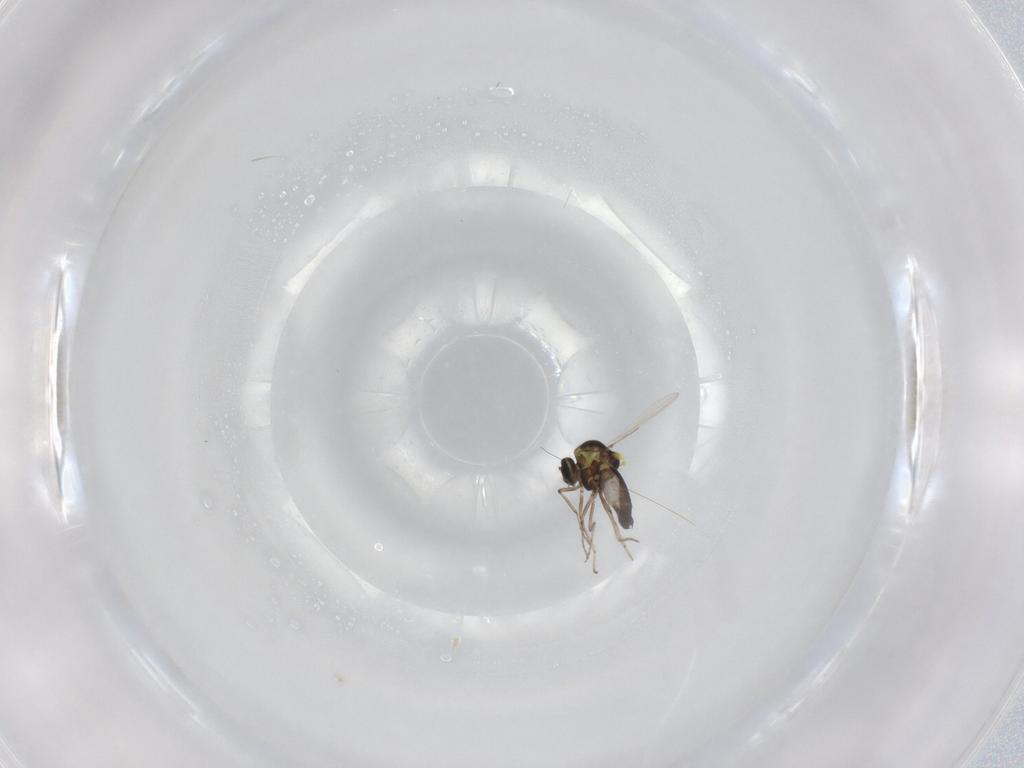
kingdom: Animalia
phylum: Arthropoda
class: Insecta
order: Diptera
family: Ceratopogonidae
